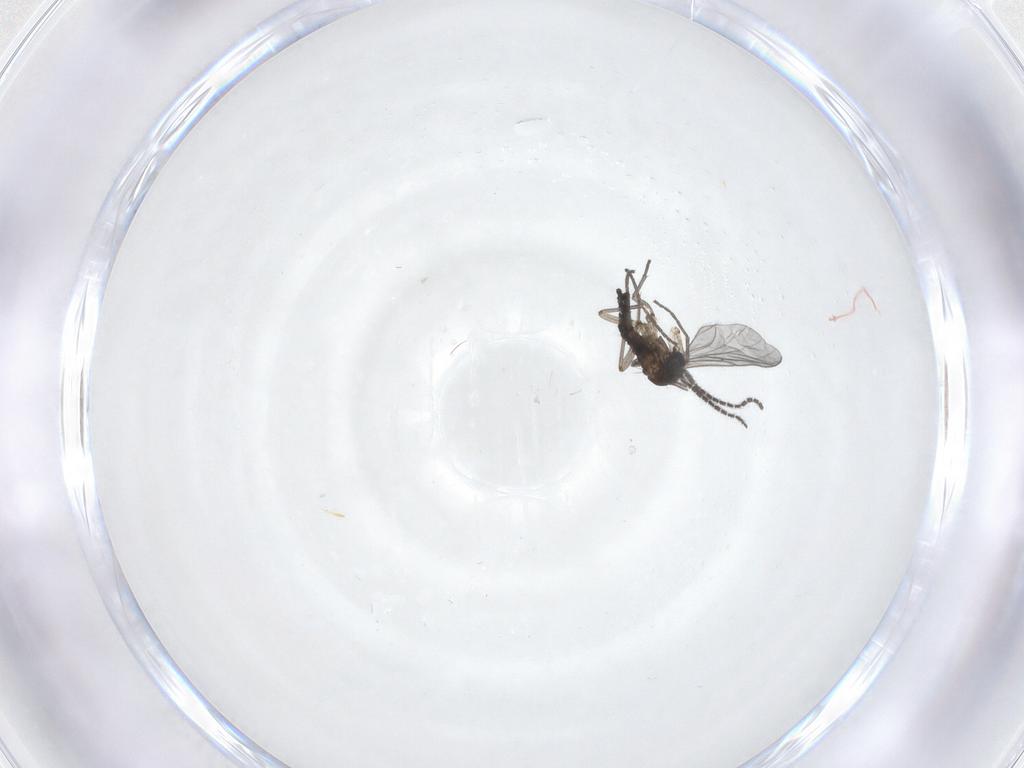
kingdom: Animalia
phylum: Arthropoda
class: Insecta
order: Diptera
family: Sciaridae
